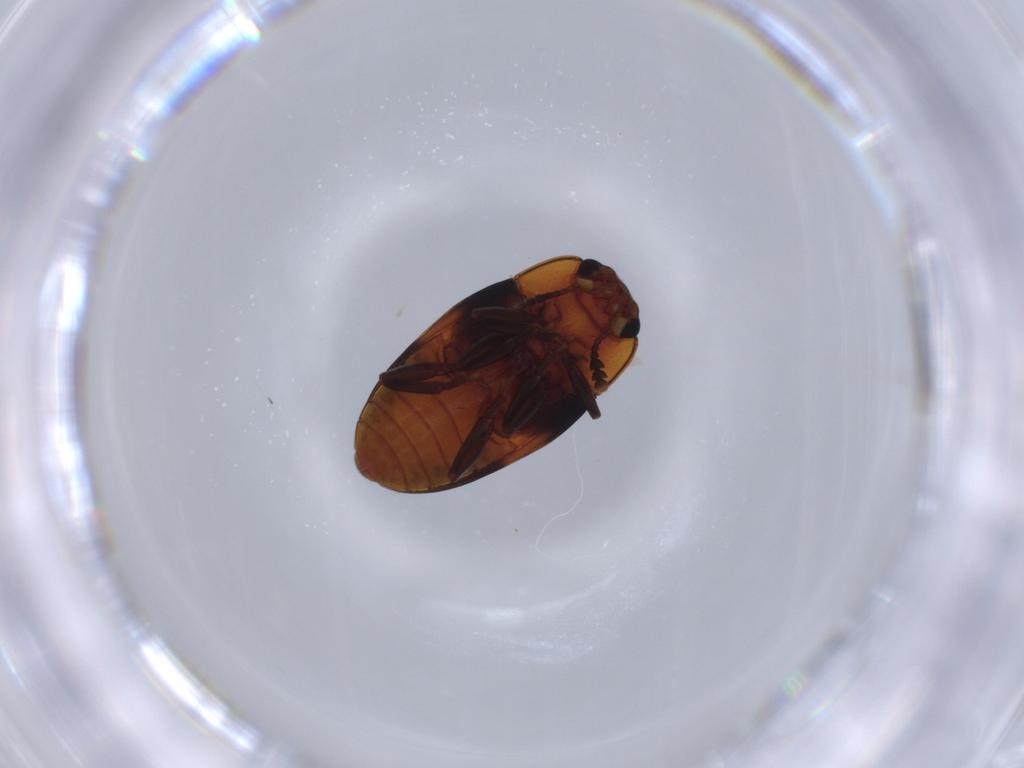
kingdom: Animalia
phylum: Arthropoda
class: Insecta
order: Coleoptera
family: Erotylidae
